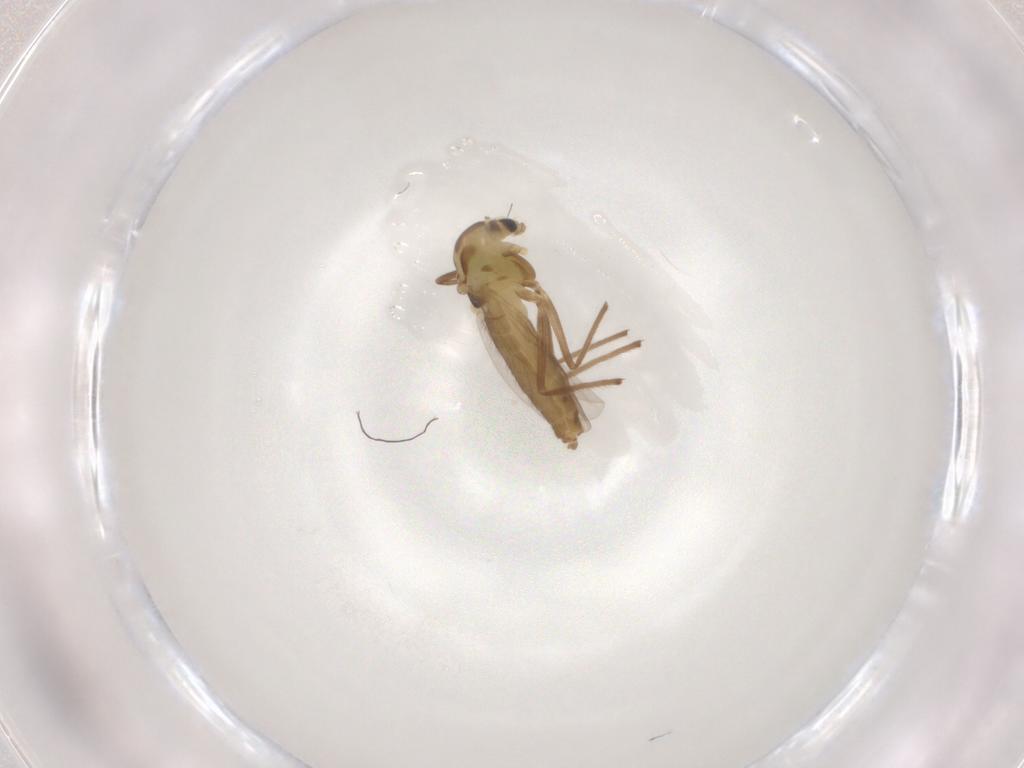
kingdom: Animalia
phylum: Arthropoda
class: Insecta
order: Diptera
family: Chironomidae
